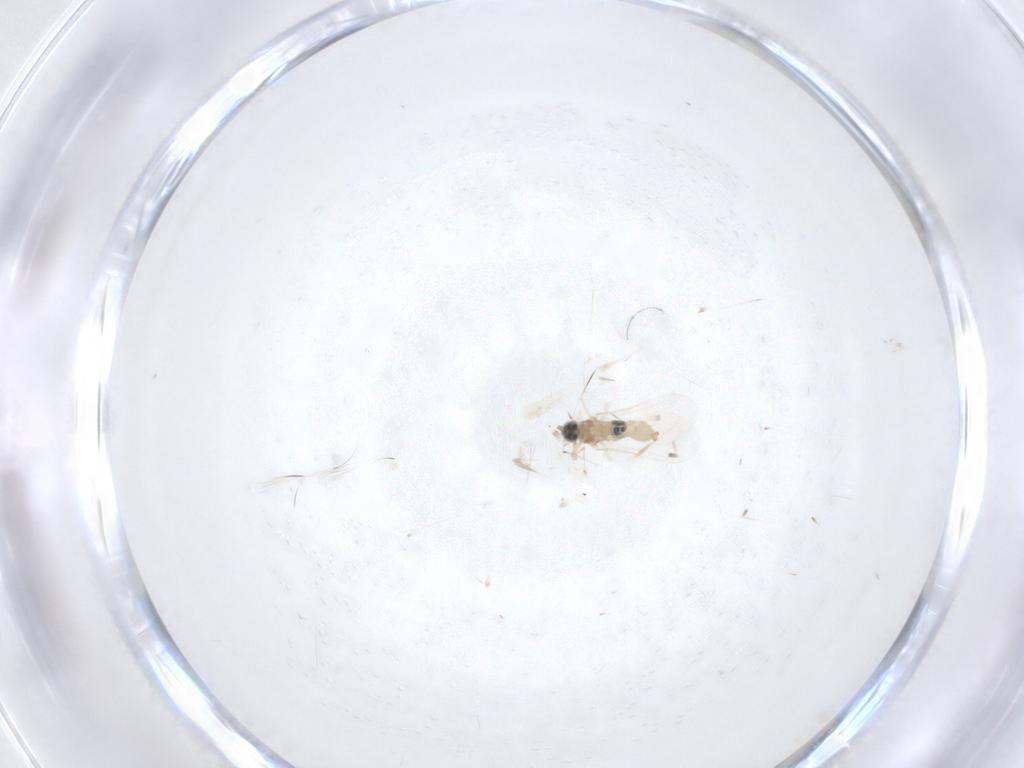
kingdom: Animalia
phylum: Arthropoda
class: Insecta
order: Diptera
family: Cecidomyiidae
